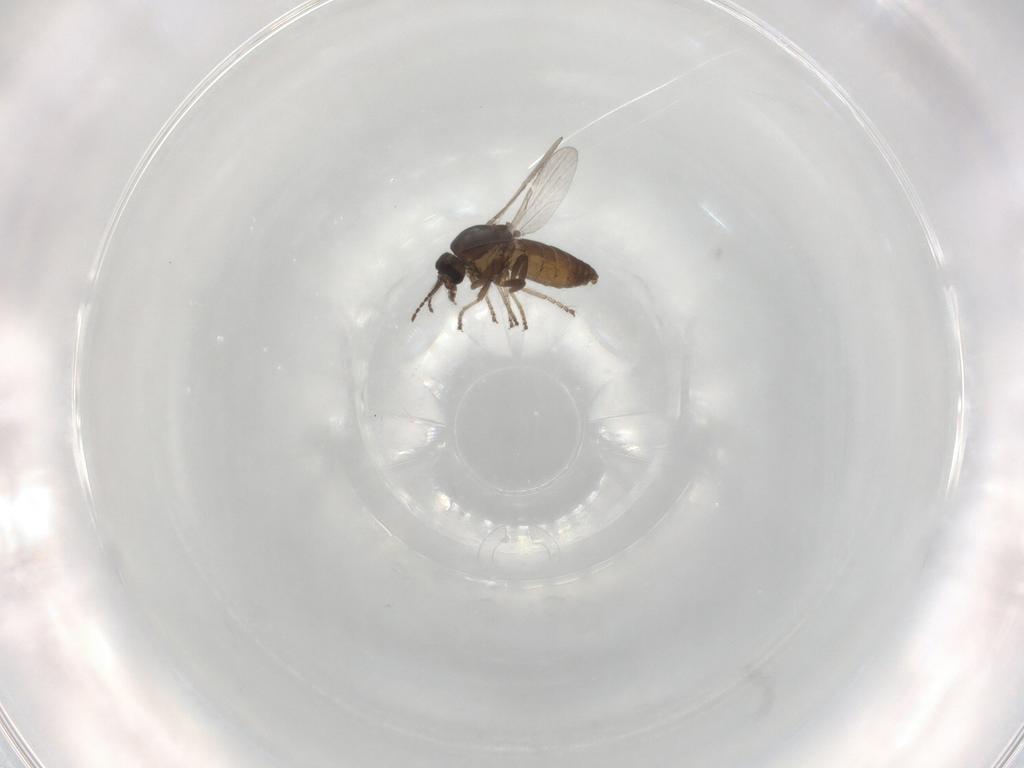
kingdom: Animalia
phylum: Arthropoda
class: Insecta
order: Diptera
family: Ceratopogonidae
